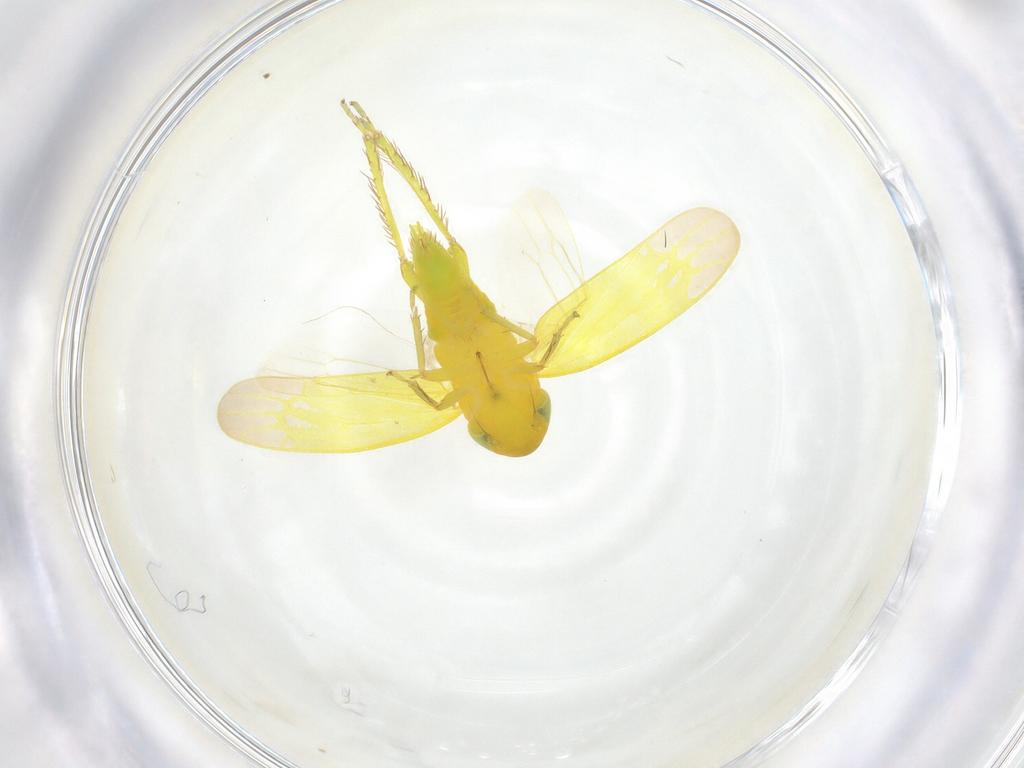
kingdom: Animalia
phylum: Arthropoda
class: Insecta
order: Hemiptera
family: Cicadellidae
